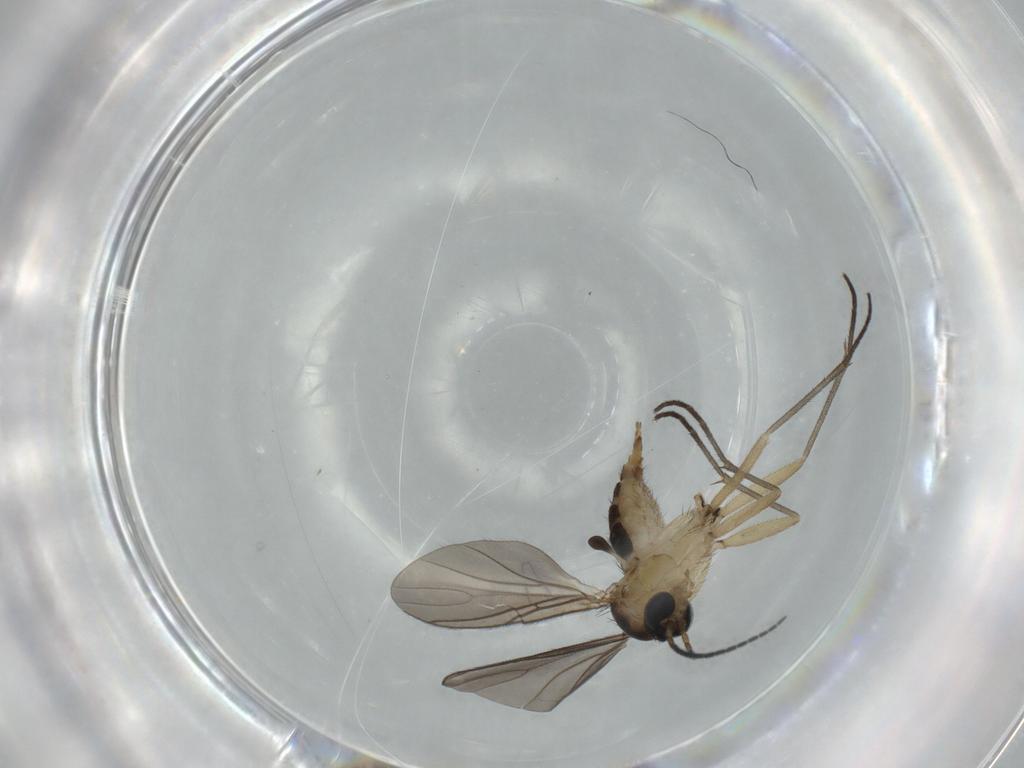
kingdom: Animalia
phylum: Arthropoda
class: Insecta
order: Diptera
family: Sciaridae
